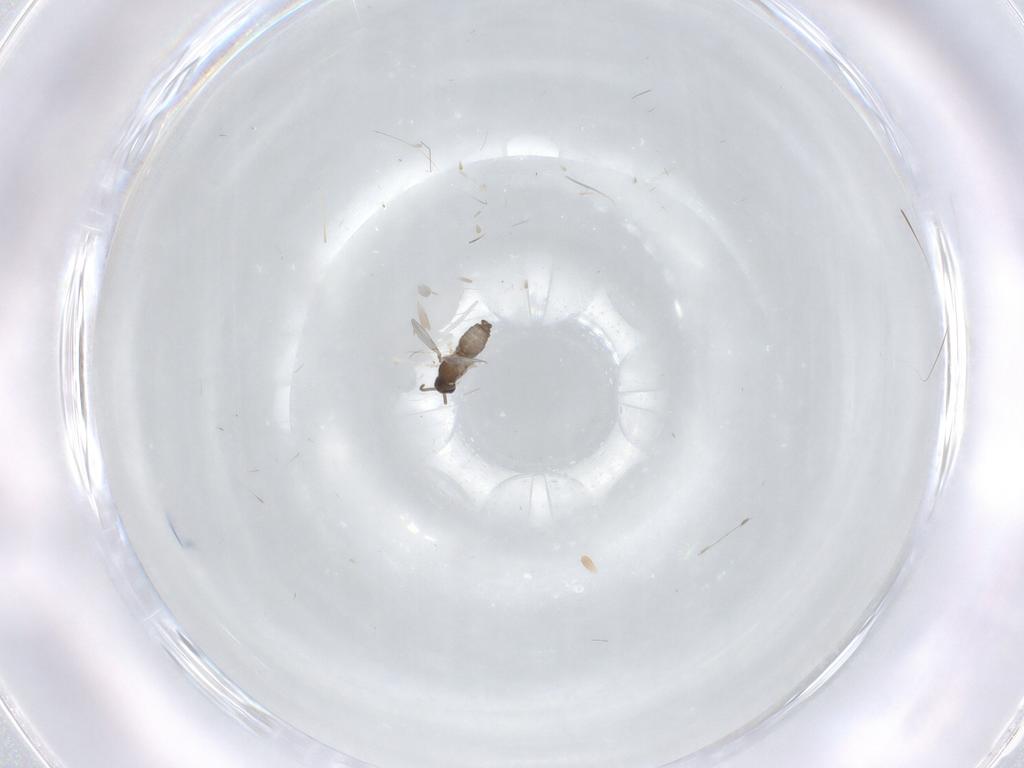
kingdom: Animalia
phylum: Arthropoda
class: Insecta
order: Diptera
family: Cecidomyiidae
